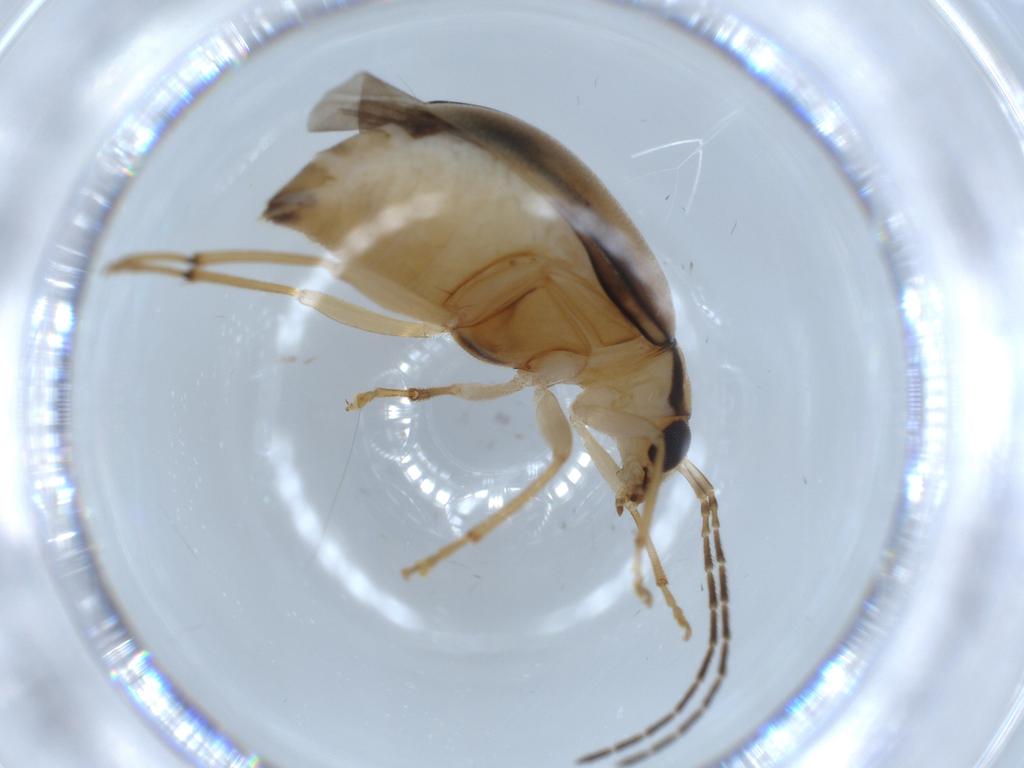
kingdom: Animalia
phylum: Arthropoda
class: Insecta
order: Coleoptera
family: Chrysomelidae
